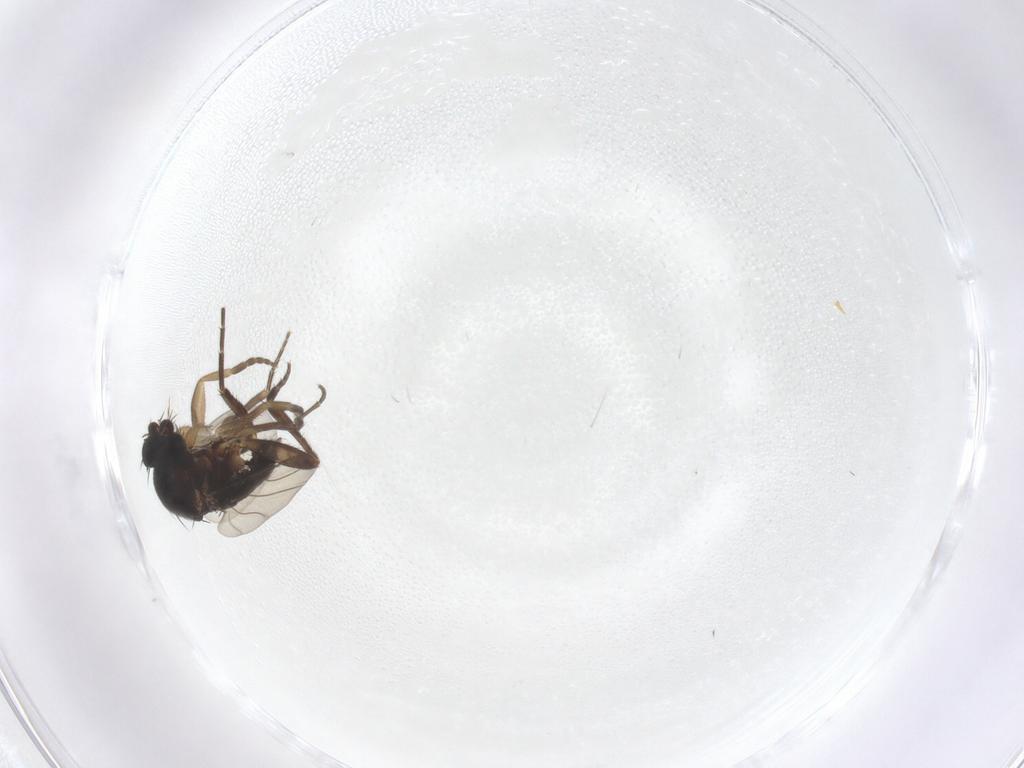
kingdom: Animalia
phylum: Arthropoda
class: Insecta
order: Diptera
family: Phoridae
